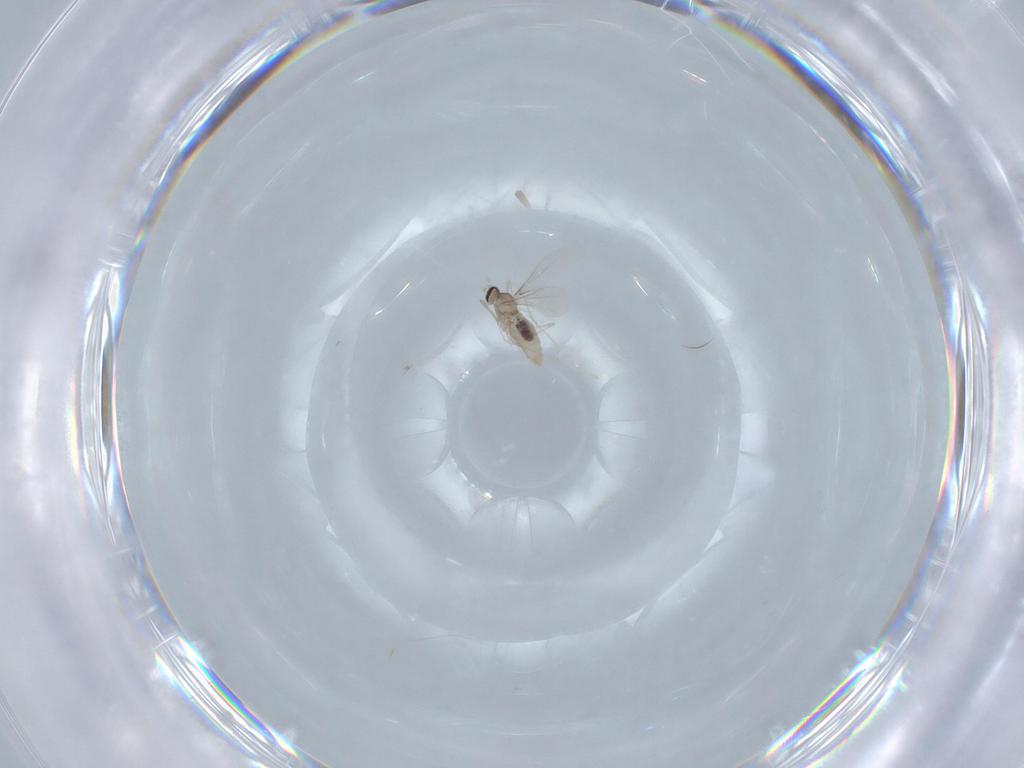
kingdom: Animalia
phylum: Arthropoda
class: Insecta
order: Diptera
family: Cecidomyiidae
